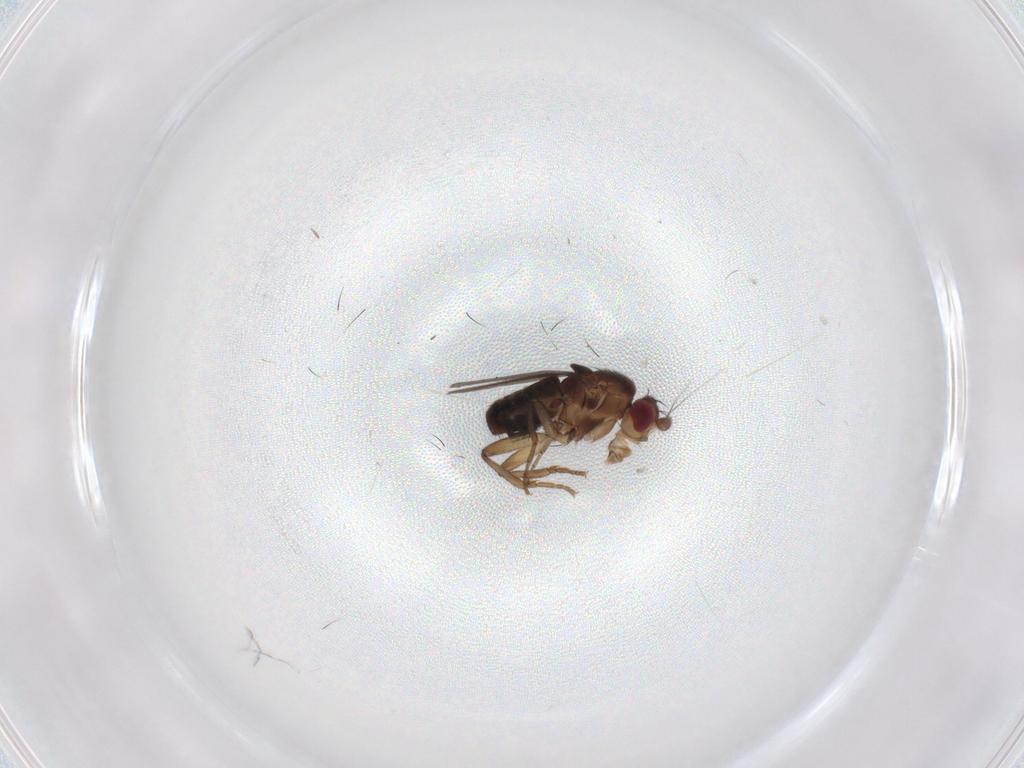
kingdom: Animalia
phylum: Arthropoda
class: Insecta
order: Diptera
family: Sphaeroceridae
